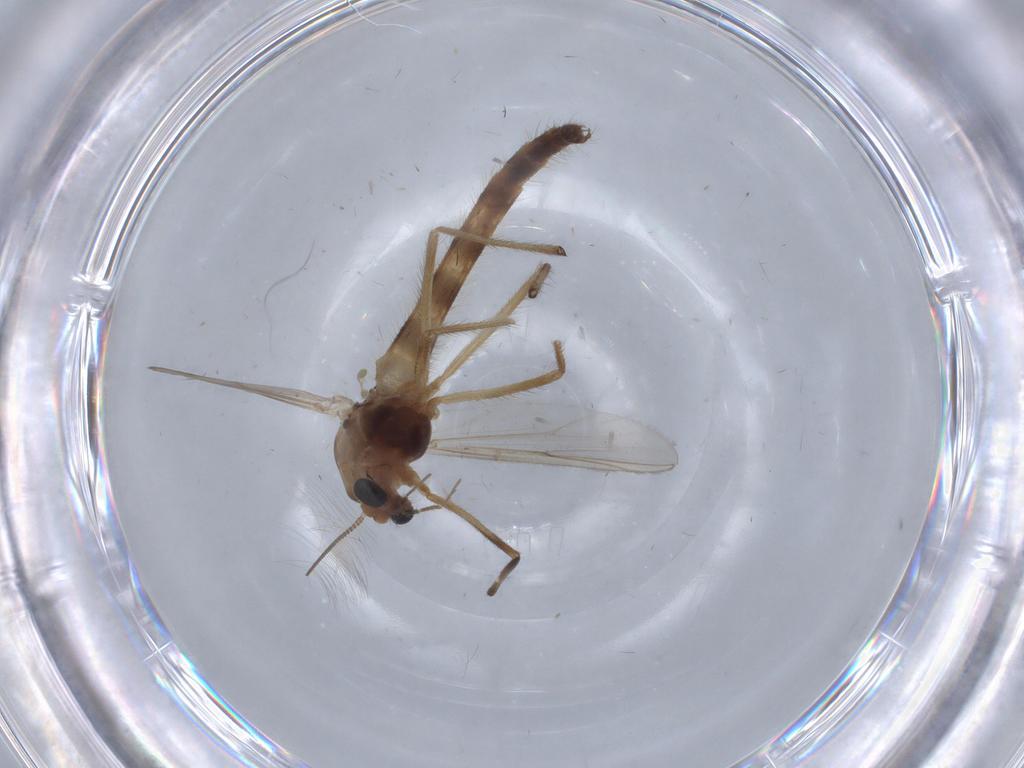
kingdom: Animalia
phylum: Arthropoda
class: Insecta
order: Diptera
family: Chironomidae
